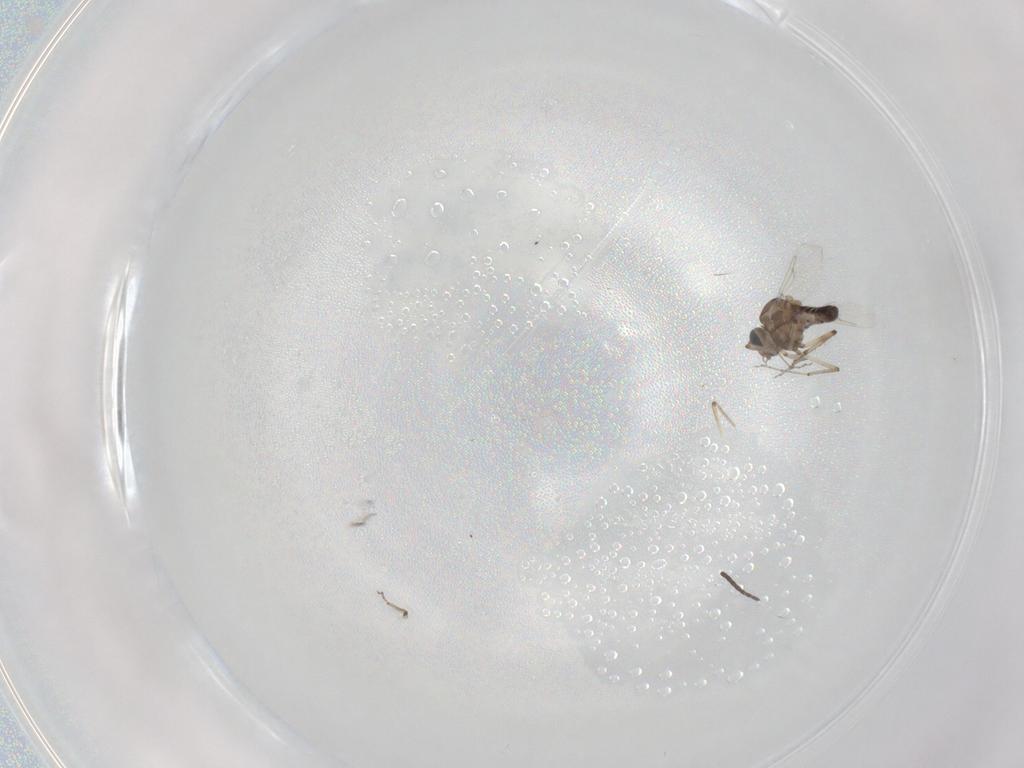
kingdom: Animalia
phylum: Arthropoda
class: Insecta
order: Diptera
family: Ceratopogonidae
